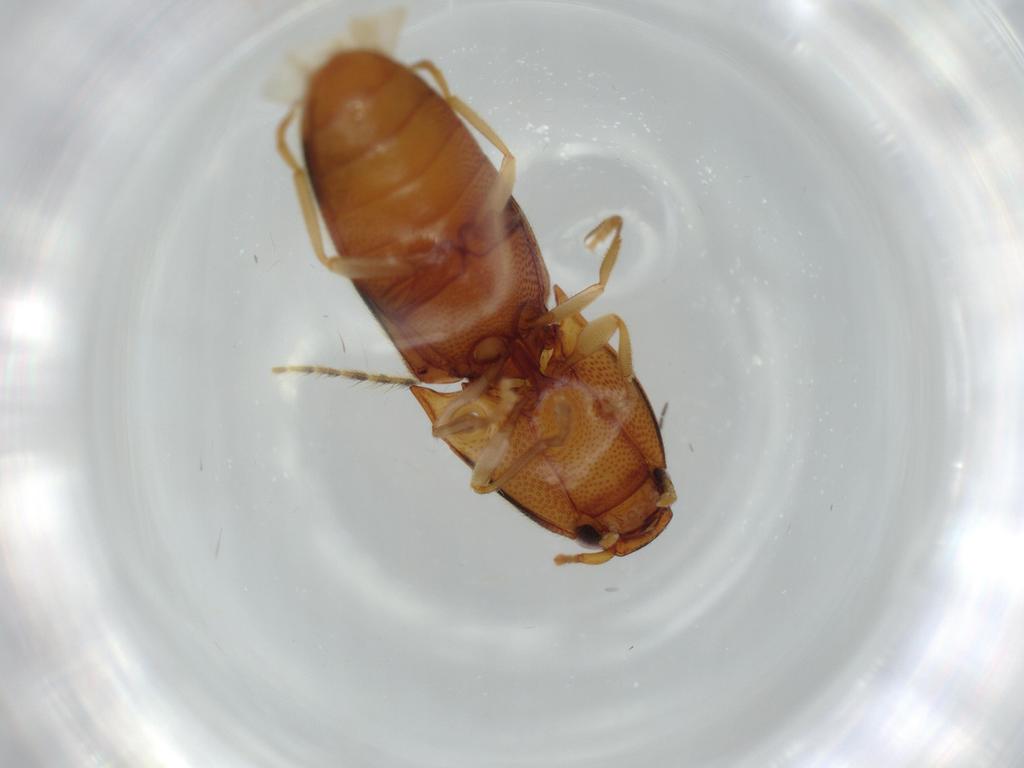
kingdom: Animalia
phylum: Arthropoda
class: Insecta
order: Coleoptera
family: Elateridae
